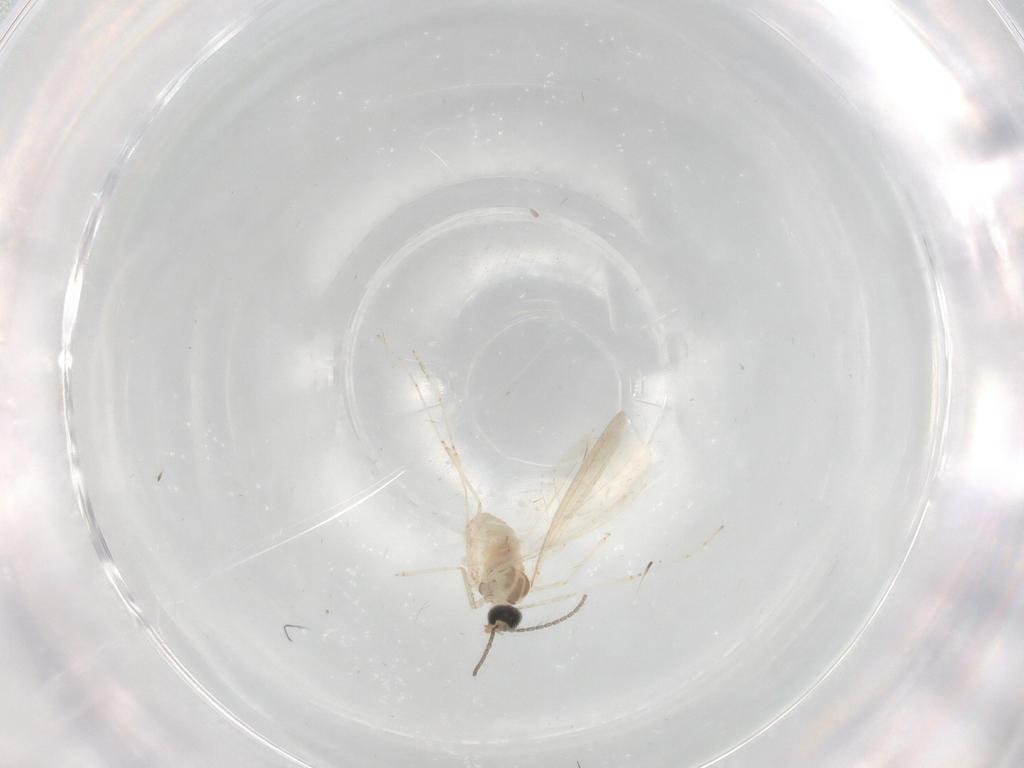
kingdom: Animalia
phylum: Arthropoda
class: Insecta
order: Diptera
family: Cecidomyiidae
